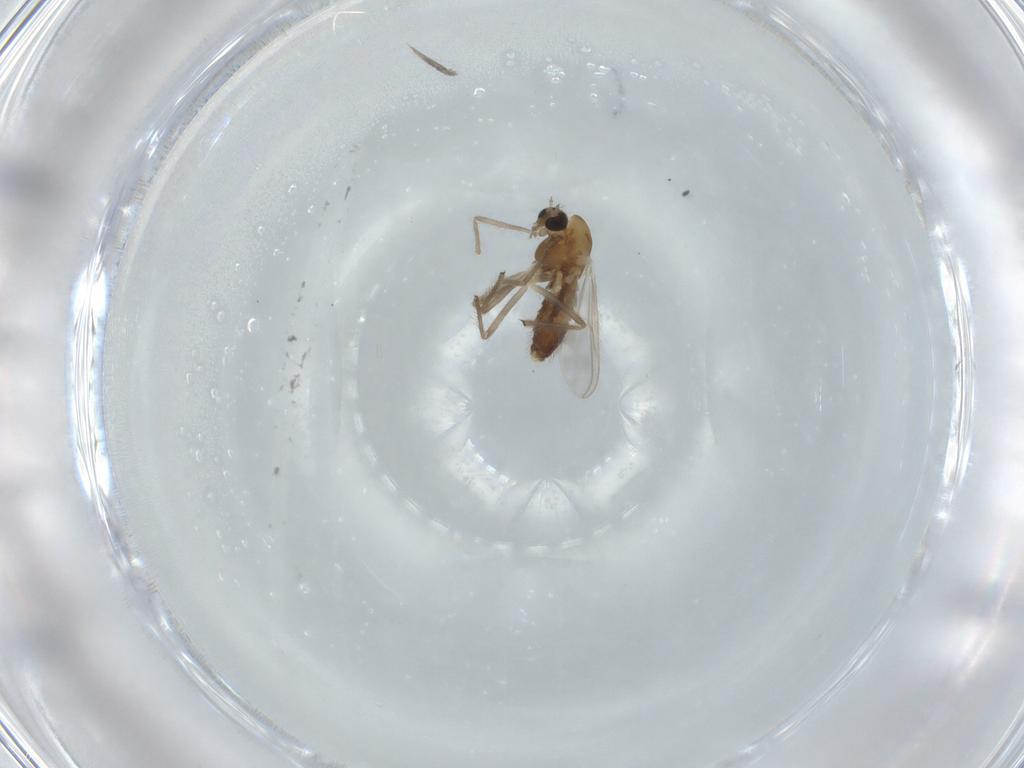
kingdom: Animalia
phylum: Arthropoda
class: Insecta
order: Diptera
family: Chironomidae
